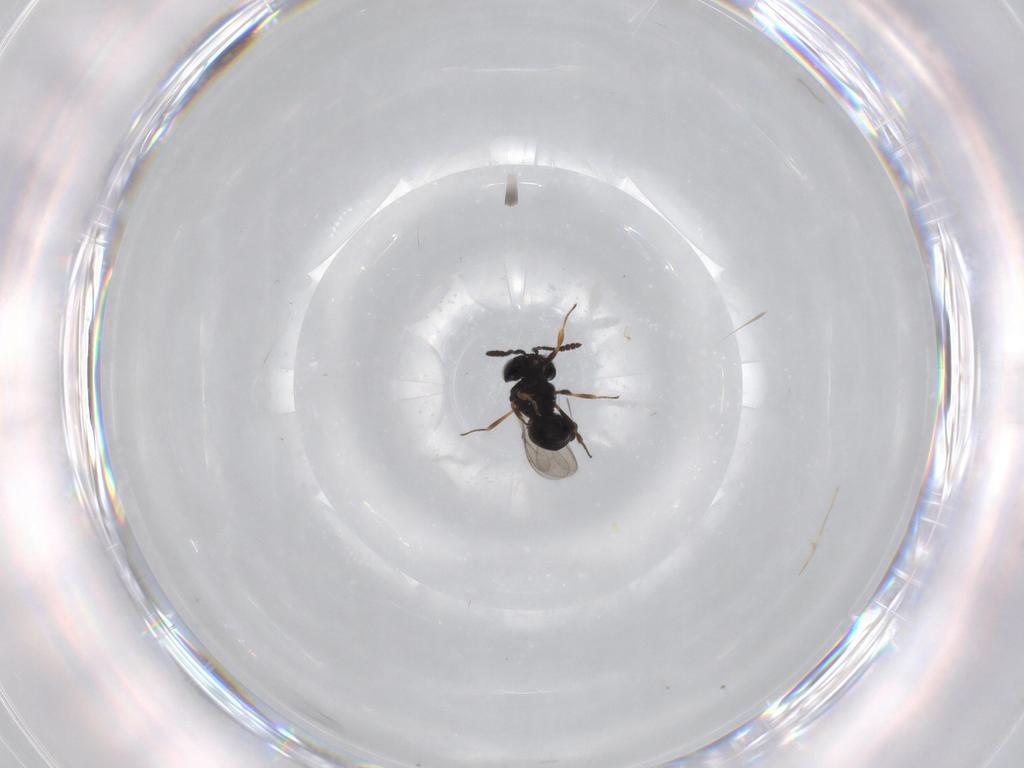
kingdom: Animalia
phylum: Arthropoda
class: Insecta
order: Hymenoptera
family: Scelionidae
